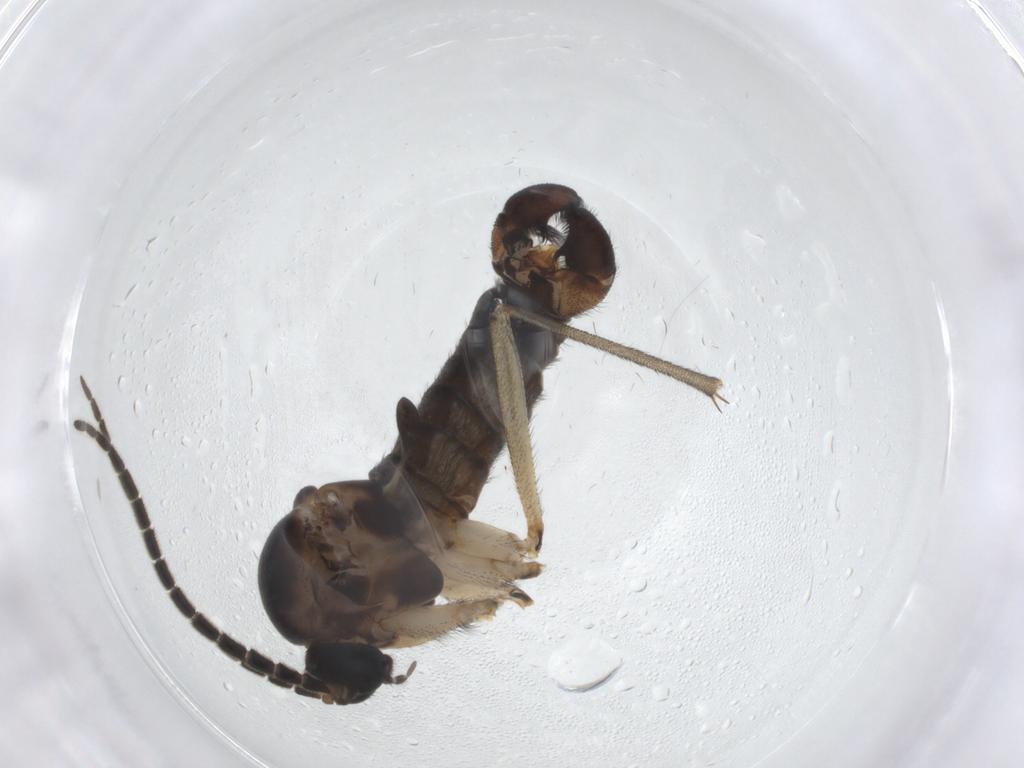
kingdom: Animalia
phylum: Arthropoda
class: Insecta
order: Diptera
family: Cecidomyiidae
